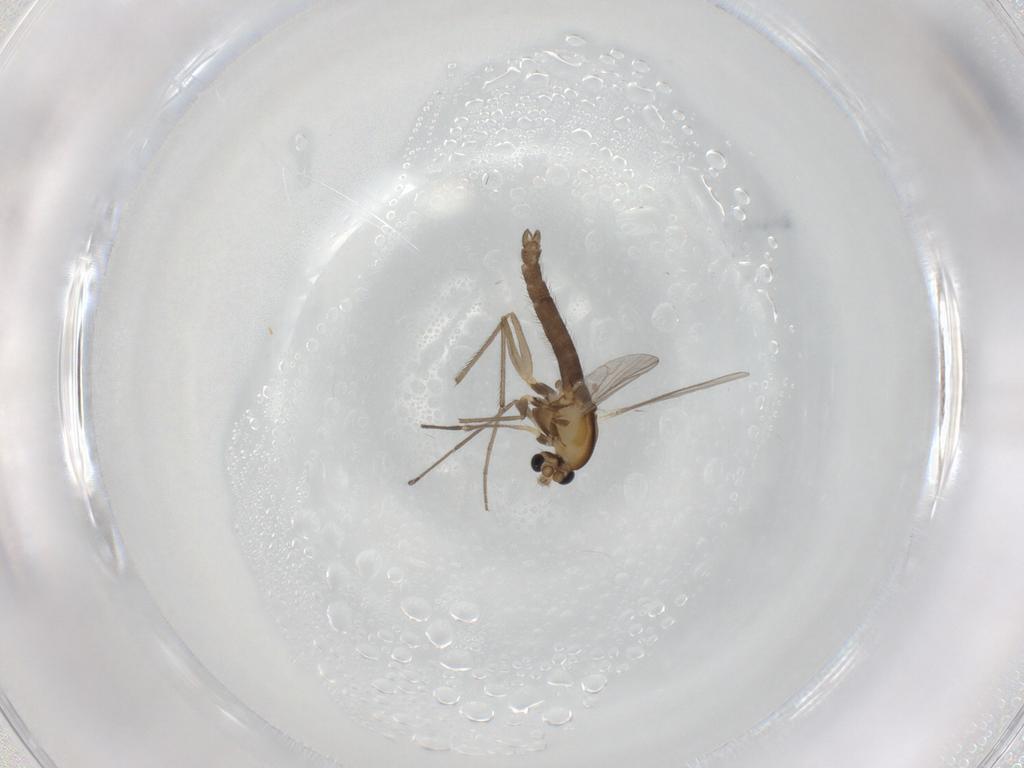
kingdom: Animalia
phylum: Arthropoda
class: Insecta
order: Diptera
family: Chironomidae
